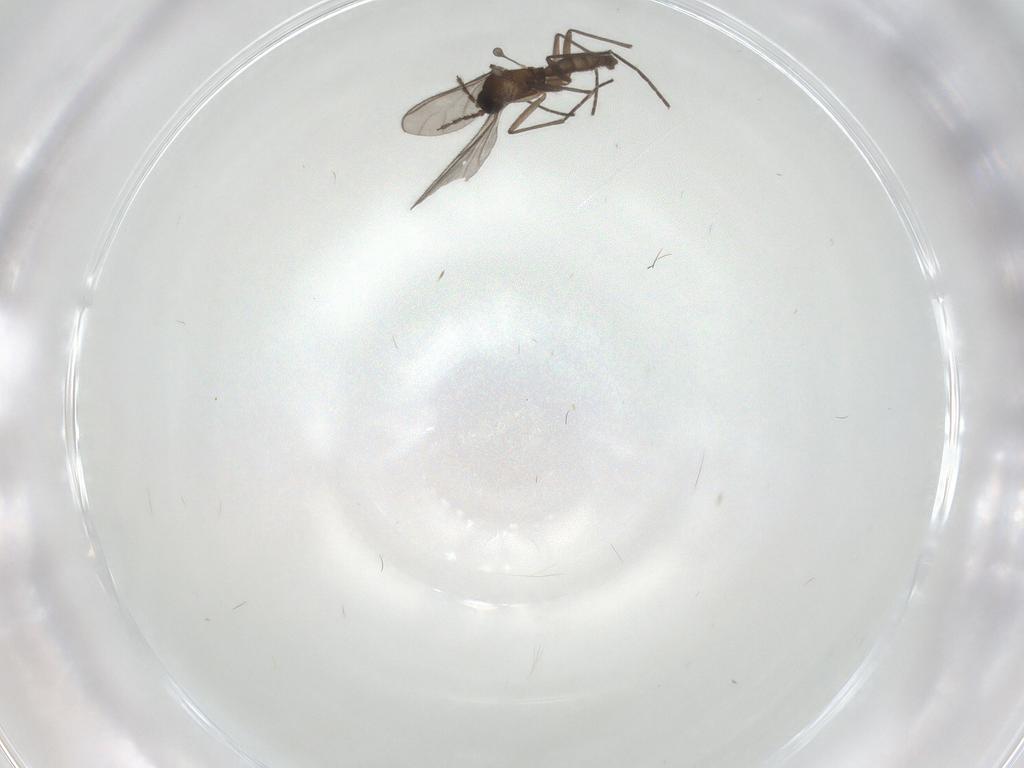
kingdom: Animalia
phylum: Arthropoda
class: Insecta
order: Diptera
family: Sciaridae
